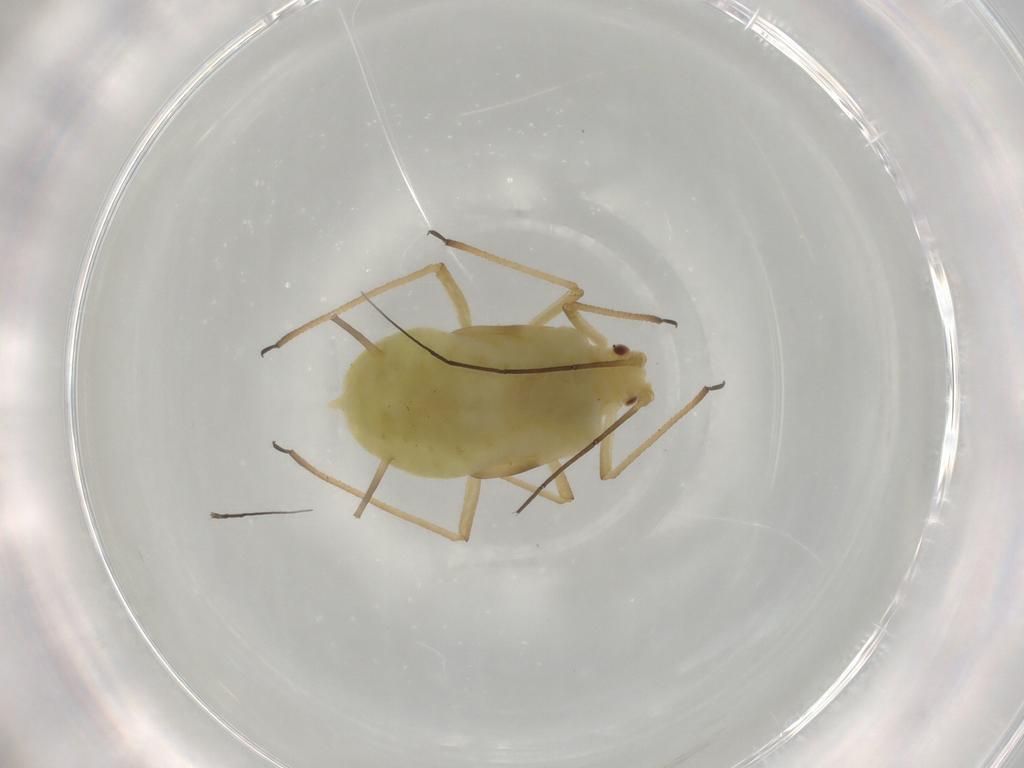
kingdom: Animalia
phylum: Arthropoda
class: Insecta
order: Hemiptera
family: Aphididae
